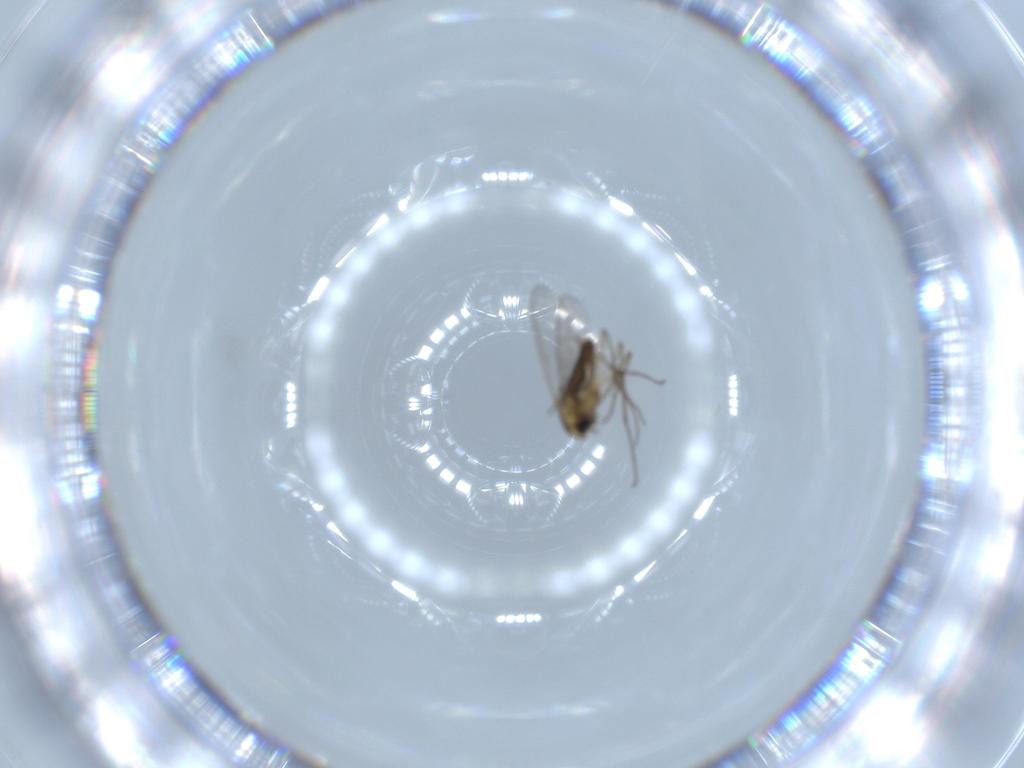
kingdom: Animalia
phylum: Arthropoda
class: Insecta
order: Diptera
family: Chironomidae
